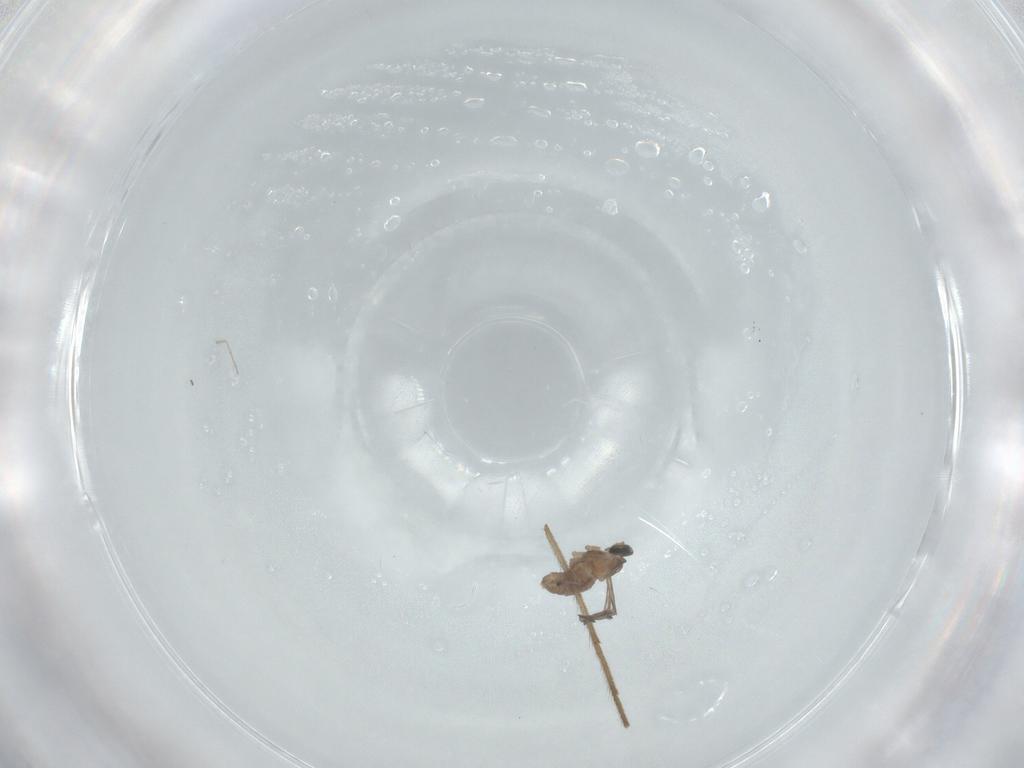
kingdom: Animalia
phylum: Arthropoda
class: Insecta
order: Diptera
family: Cecidomyiidae
